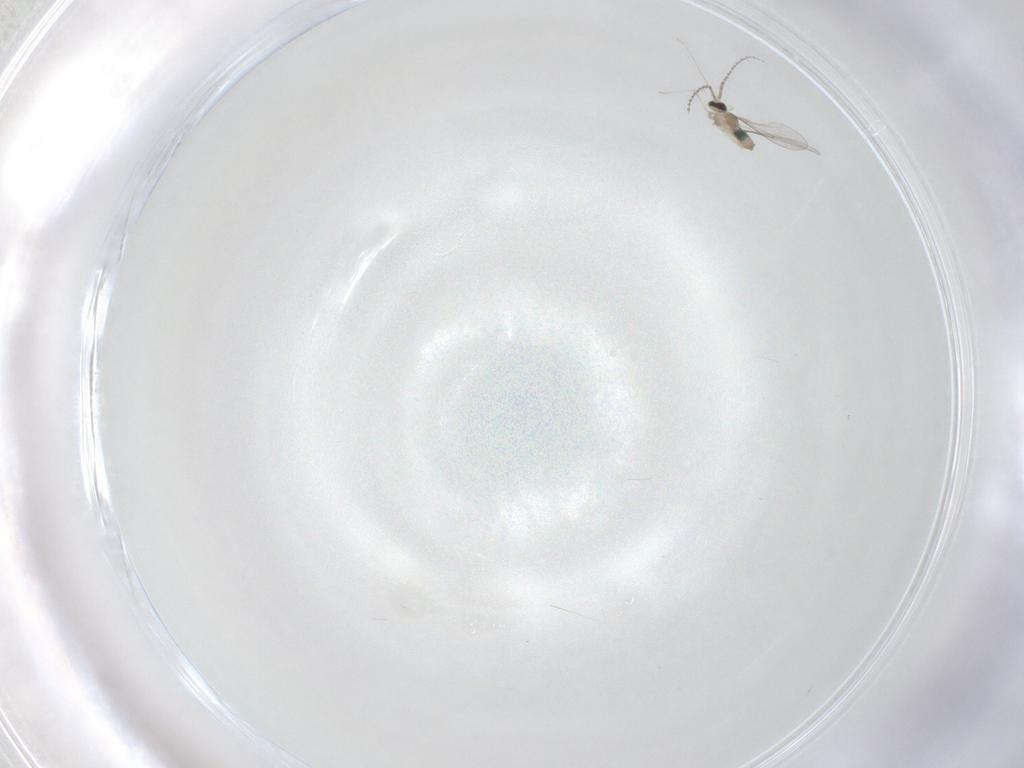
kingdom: Animalia
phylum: Arthropoda
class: Insecta
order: Diptera
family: Cecidomyiidae
